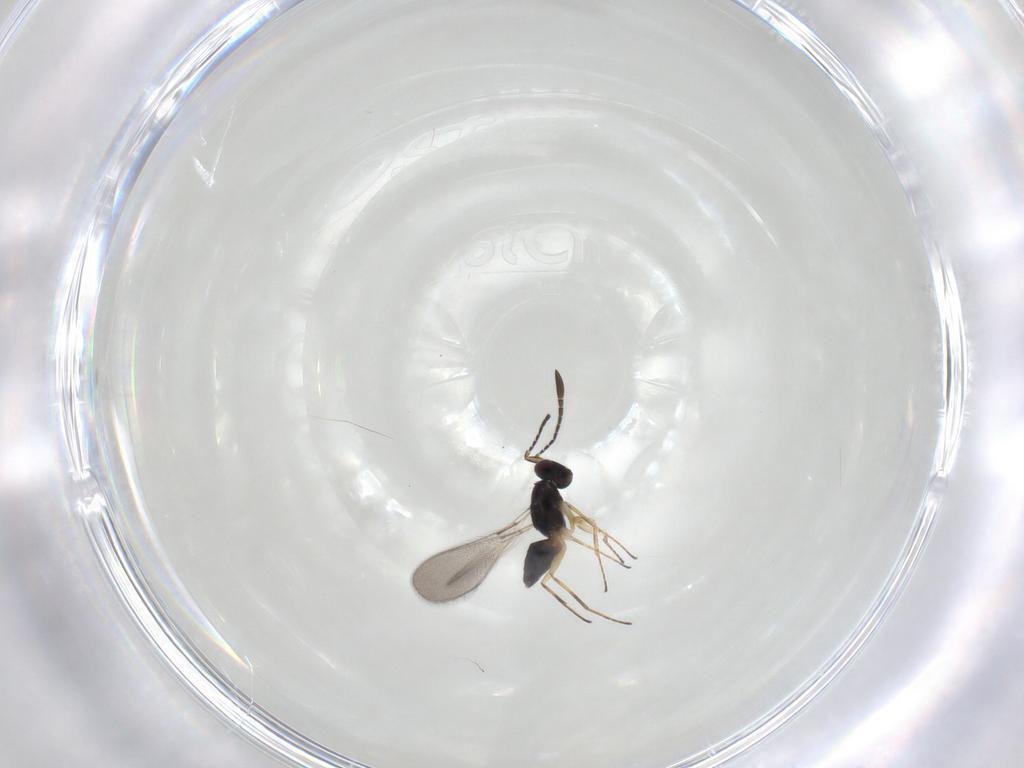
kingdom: Animalia
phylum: Arthropoda
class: Insecta
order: Hymenoptera
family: Mymaridae
